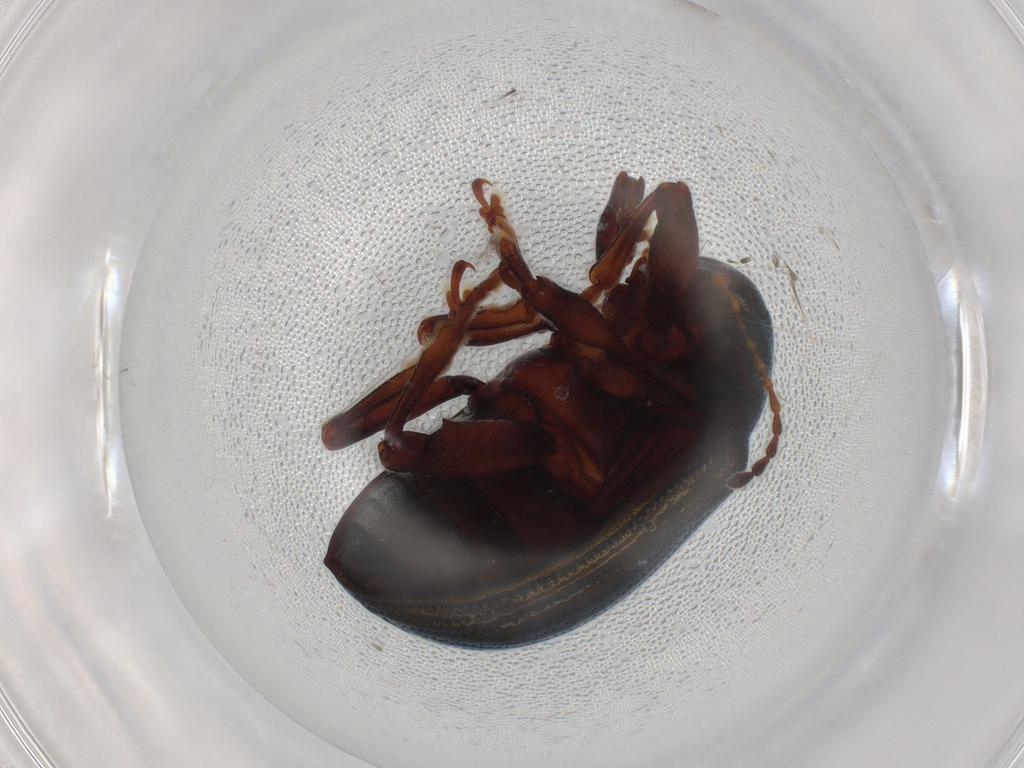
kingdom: Animalia
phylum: Arthropoda
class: Insecta
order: Coleoptera
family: Chrysomelidae
